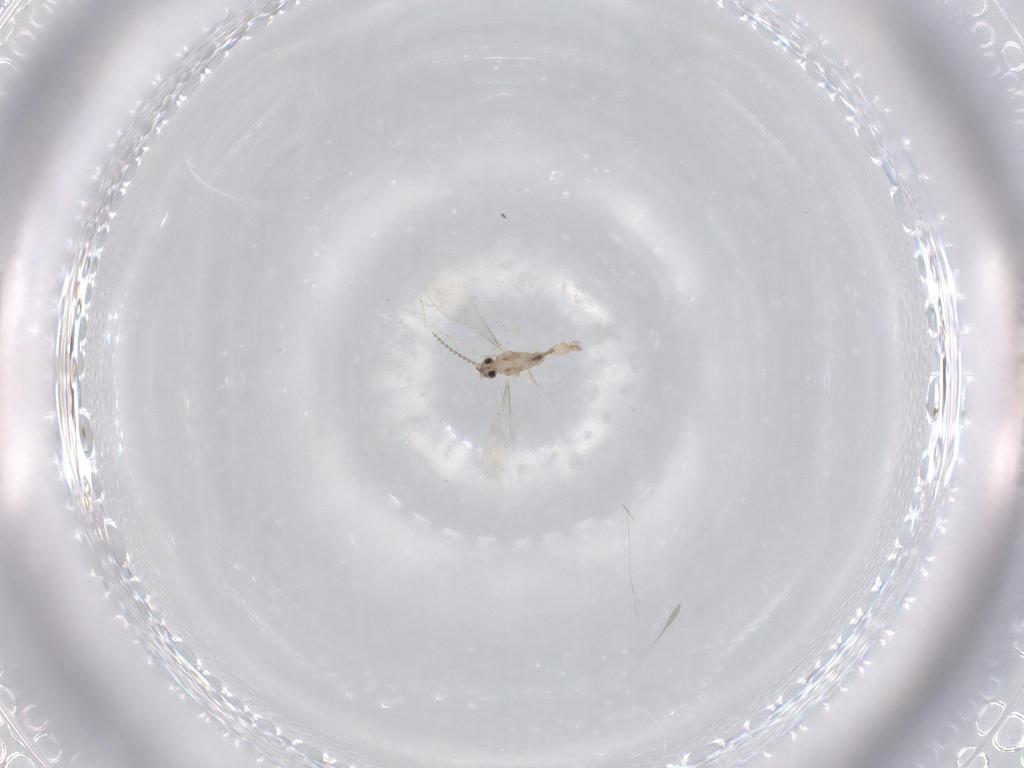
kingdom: Animalia
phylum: Arthropoda
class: Insecta
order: Diptera
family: Cecidomyiidae
